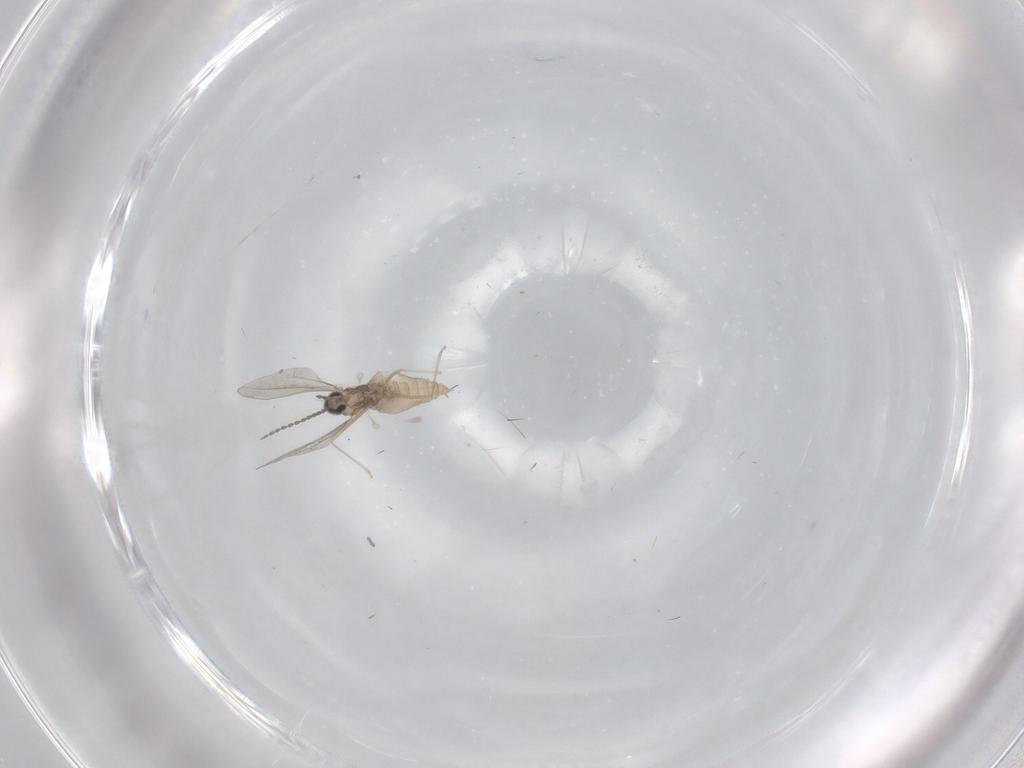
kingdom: Animalia
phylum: Arthropoda
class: Insecta
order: Diptera
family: Cecidomyiidae
